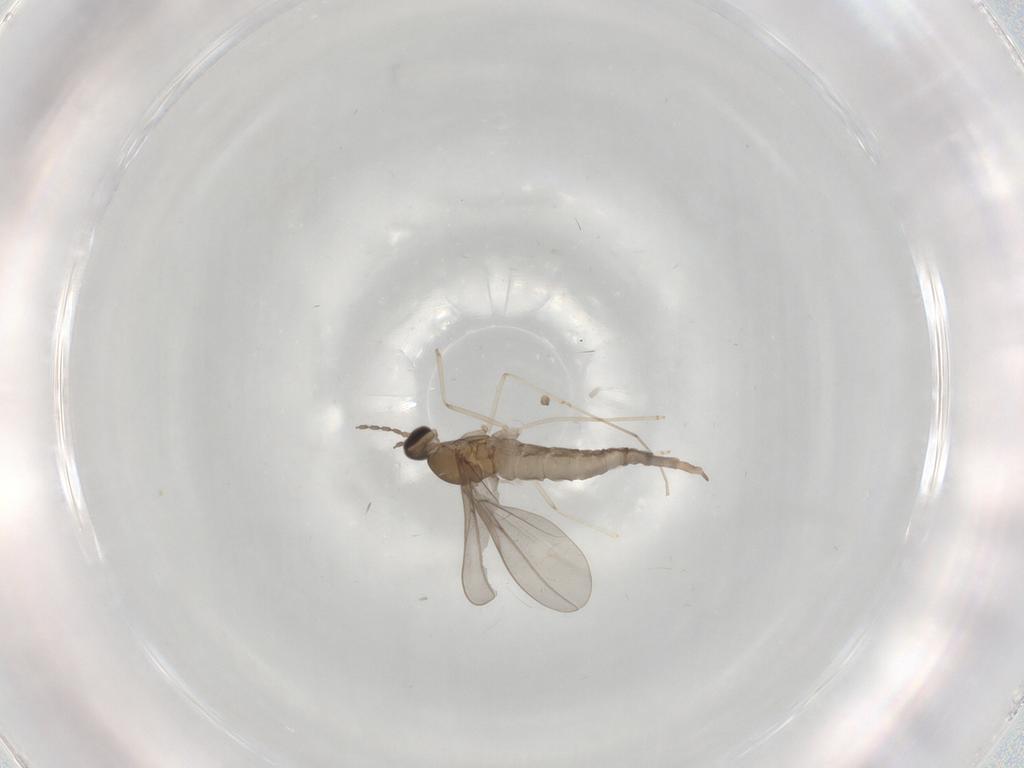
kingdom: Animalia
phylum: Arthropoda
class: Insecta
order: Diptera
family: Cecidomyiidae
